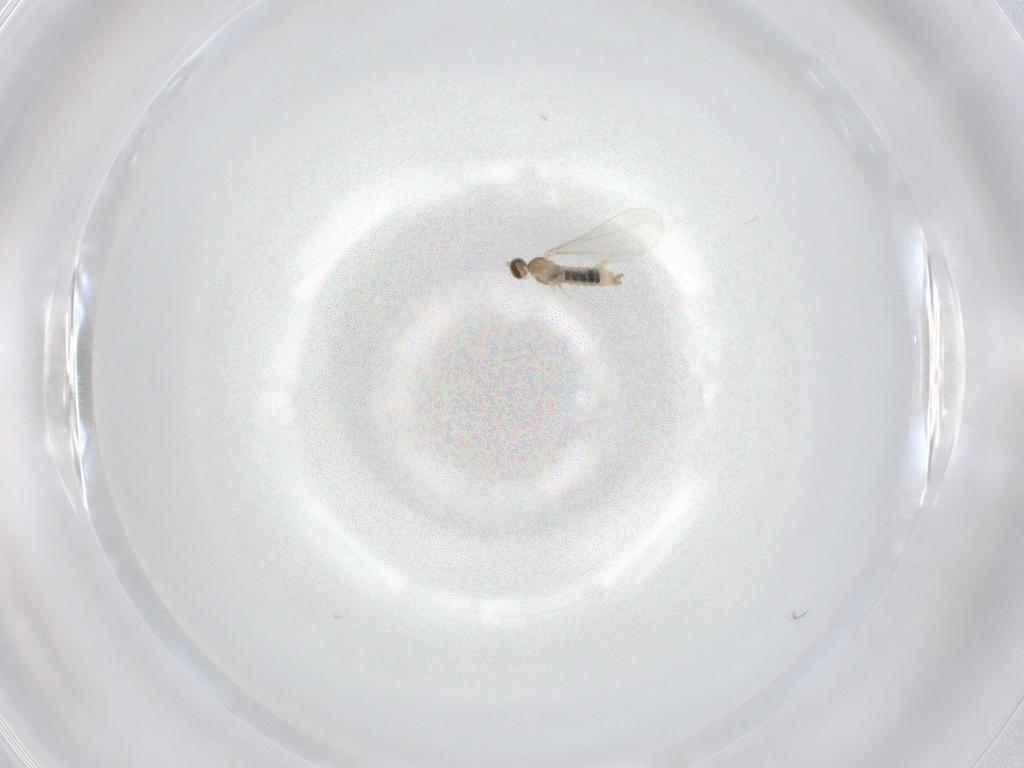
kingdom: Animalia
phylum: Arthropoda
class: Insecta
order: Diptera
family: Cecidomyiidae
